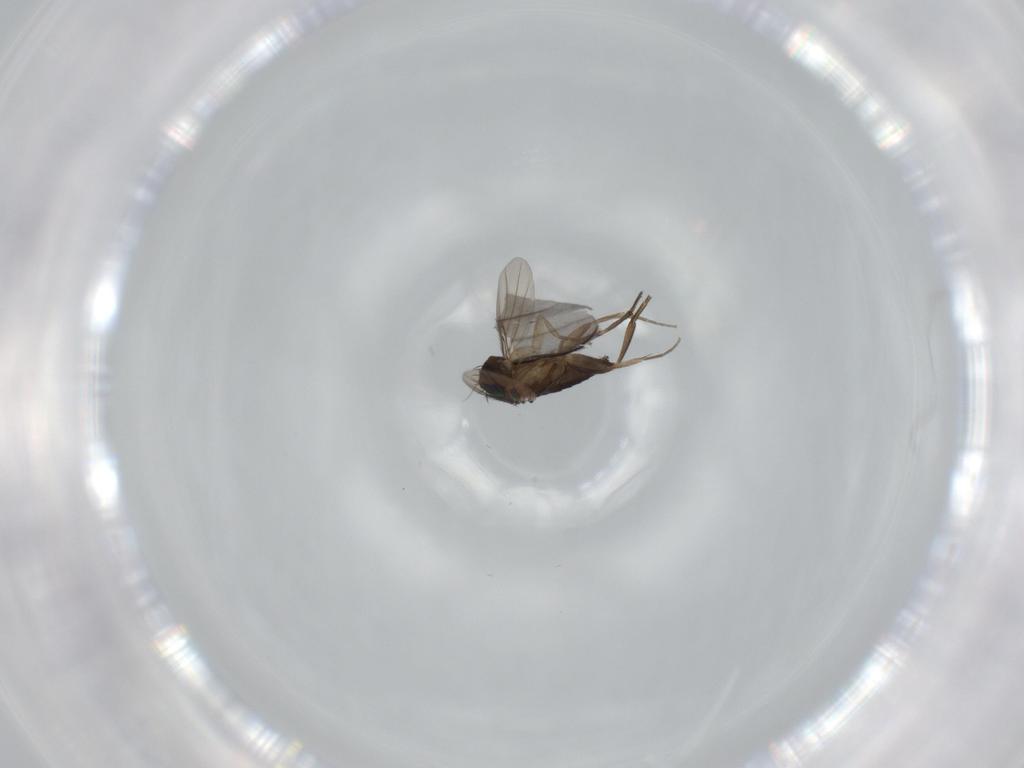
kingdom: Animalia
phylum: Arthropoda
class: Insecta
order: Diptera
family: Phoridae
